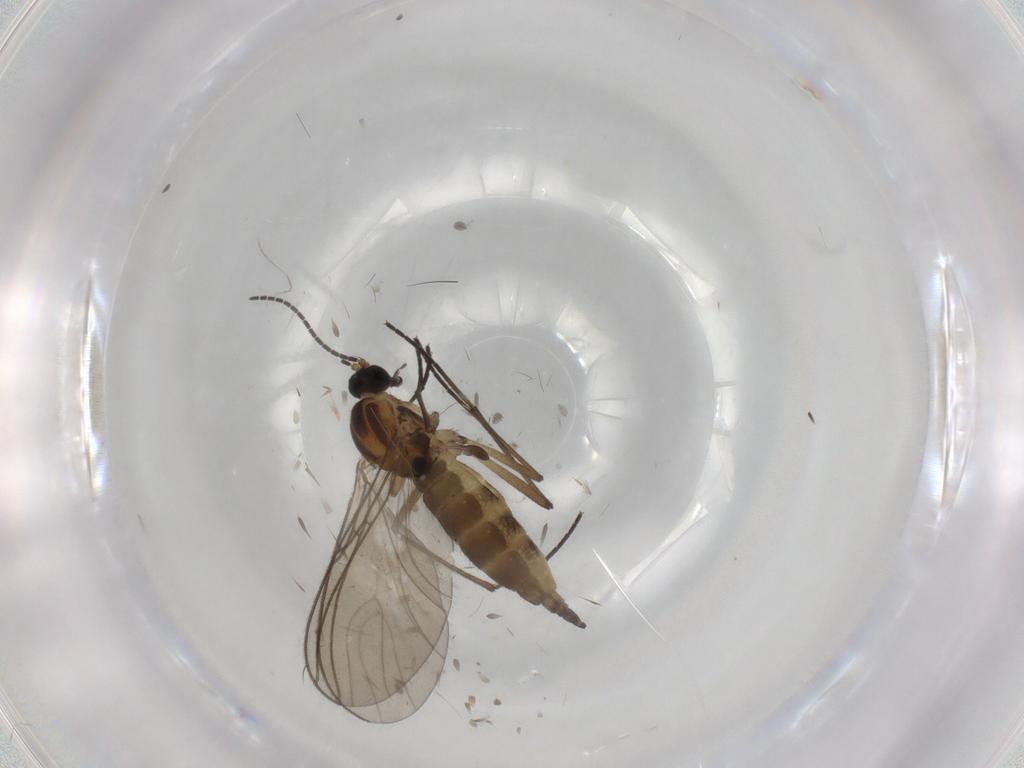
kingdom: Animalia
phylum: Arthropoda
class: Insecta
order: Diptera
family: Sciaridae
